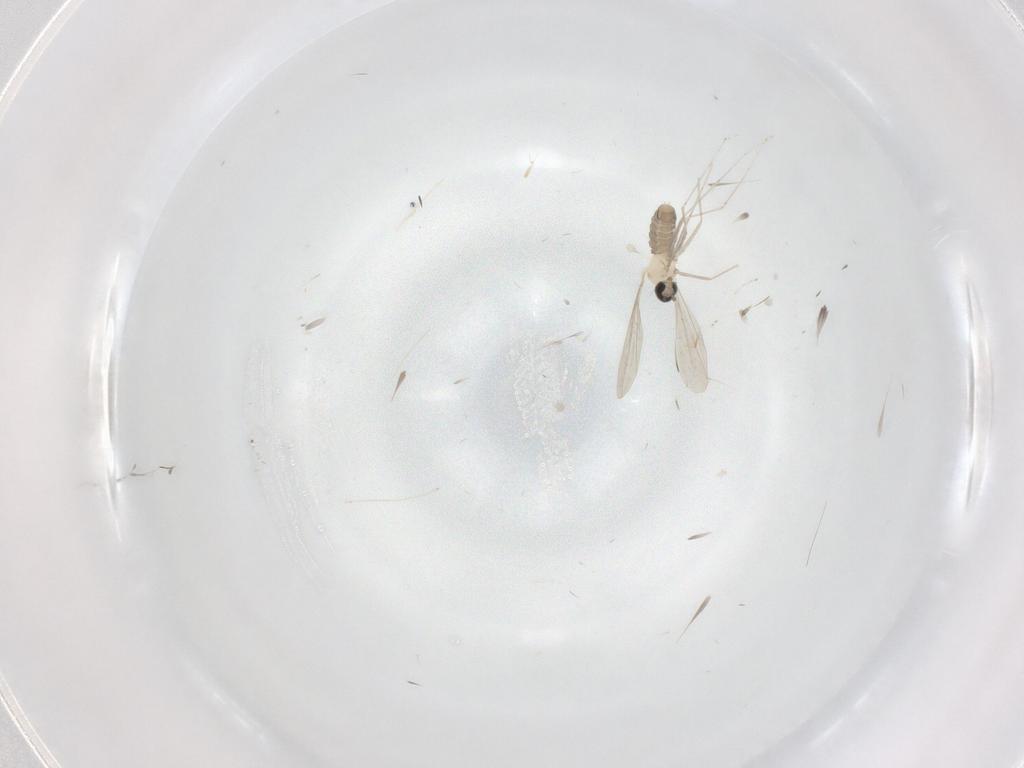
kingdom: Animalia
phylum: Arthropoda
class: Insecta
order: Diptera
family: Cecidomyiidae
